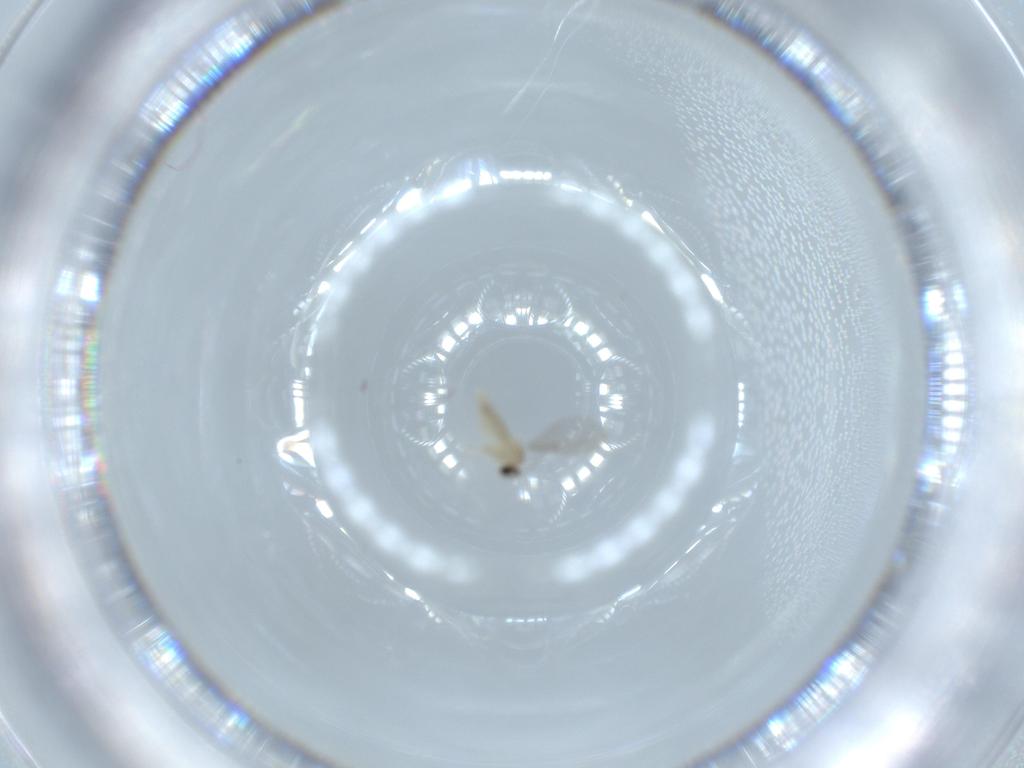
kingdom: Animalia
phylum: Arthropoda
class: Insecta
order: Diptera
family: Cecidomyiidae
